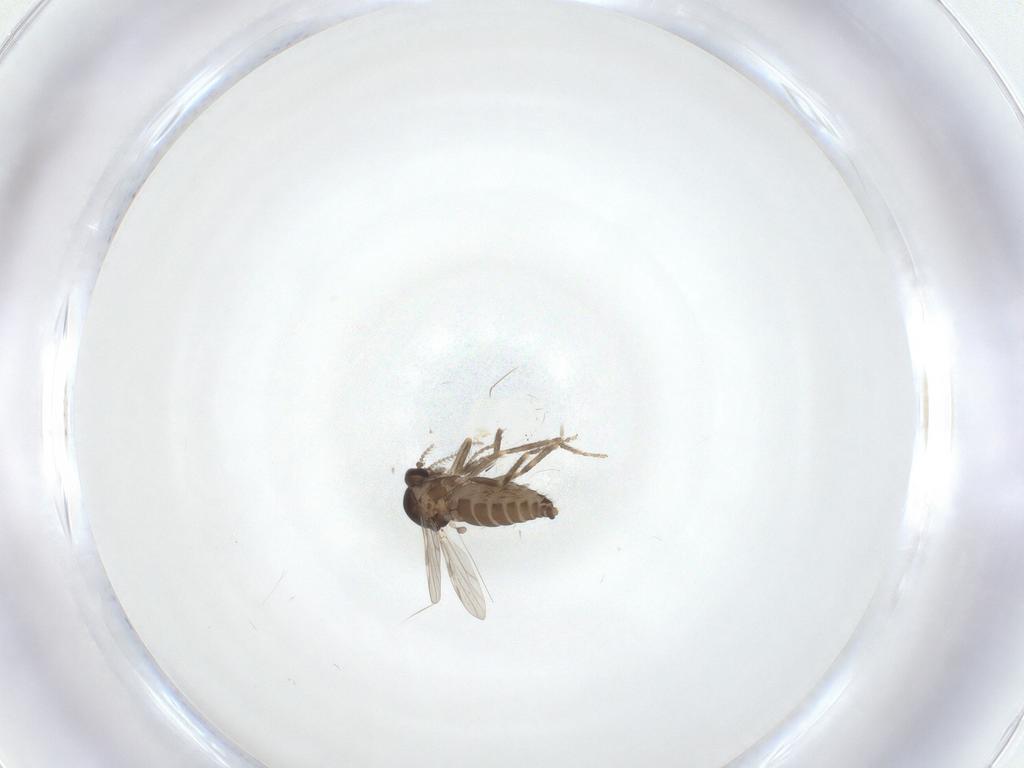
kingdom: Animalia
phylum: Arthropoda
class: Insecta
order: Diptera
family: Ceratopogonidae
